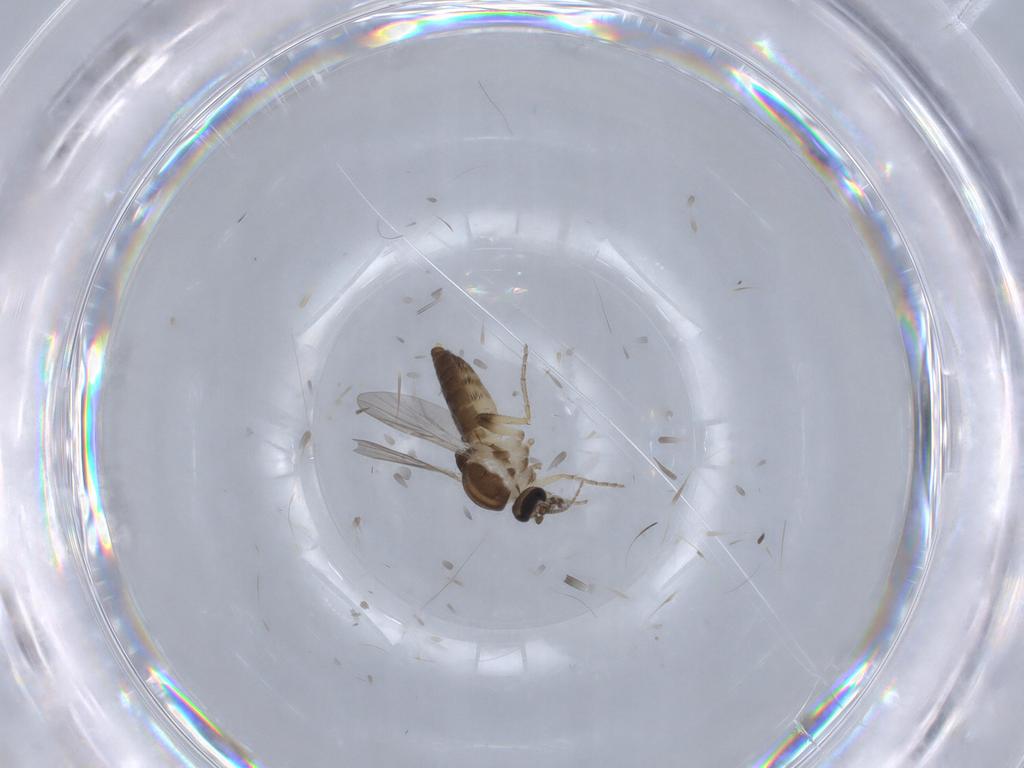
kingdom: Animalia
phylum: Arthropoda
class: Insecta
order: Diptera
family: Ceratopogonidae
